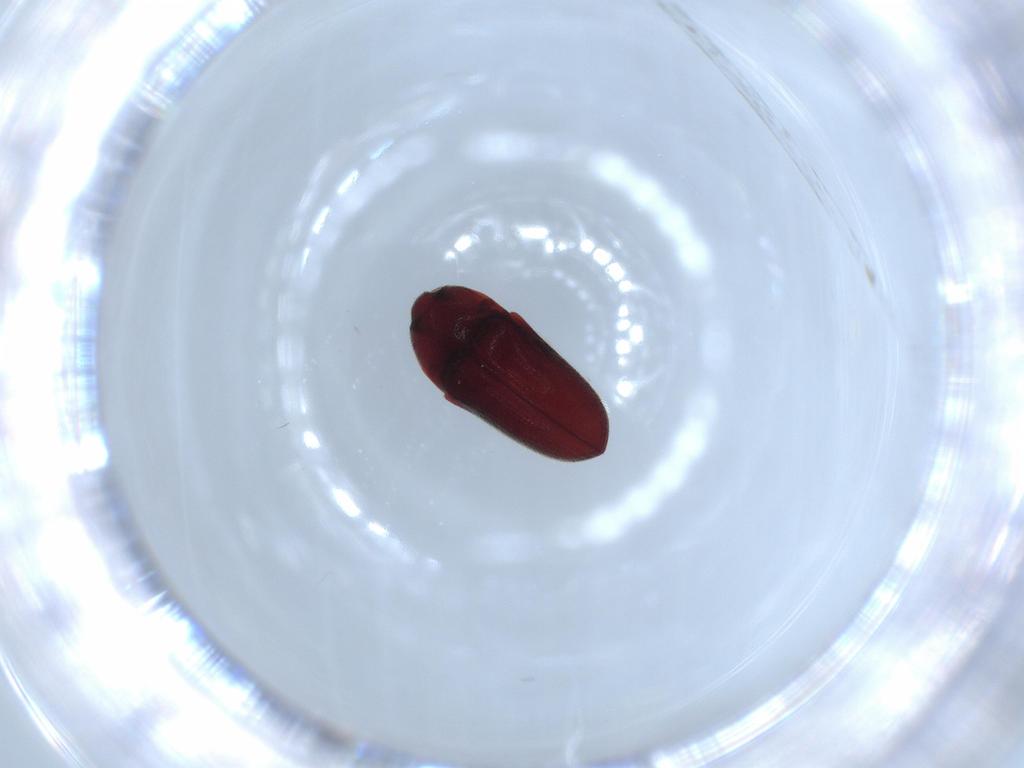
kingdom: Animalia
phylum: Arthropoda
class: Insecta
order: Coleoptera
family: Throscidae
